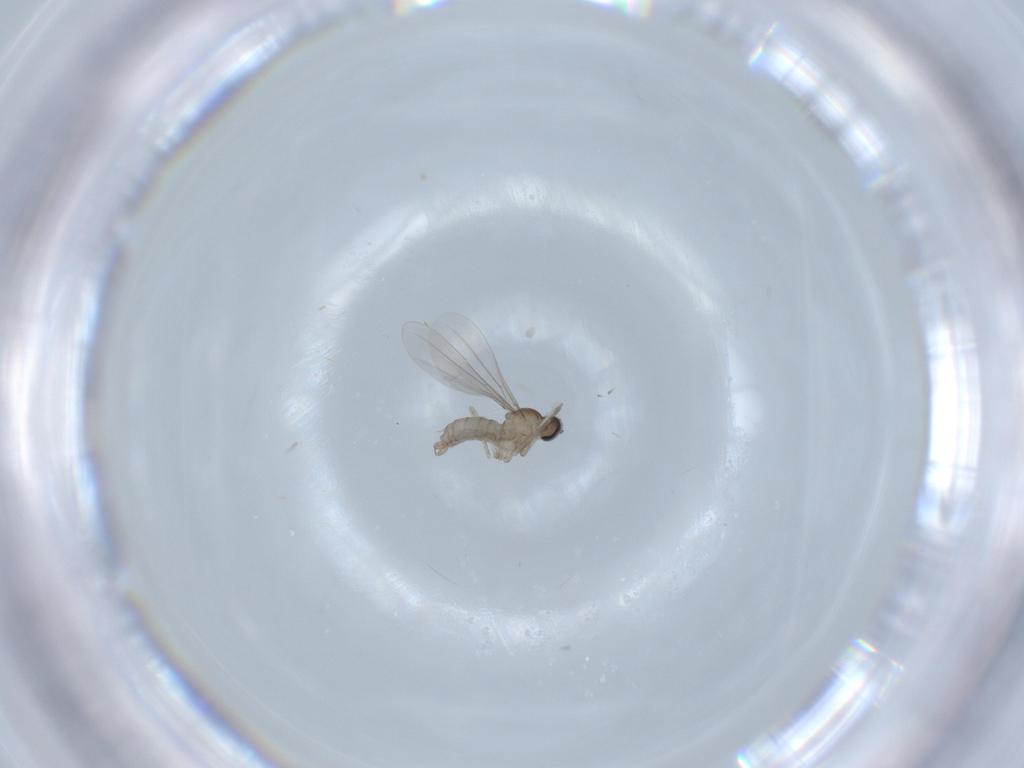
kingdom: Animalia
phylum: Arthropoda
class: Insecta
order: Diptera
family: Cecidomyiidae
